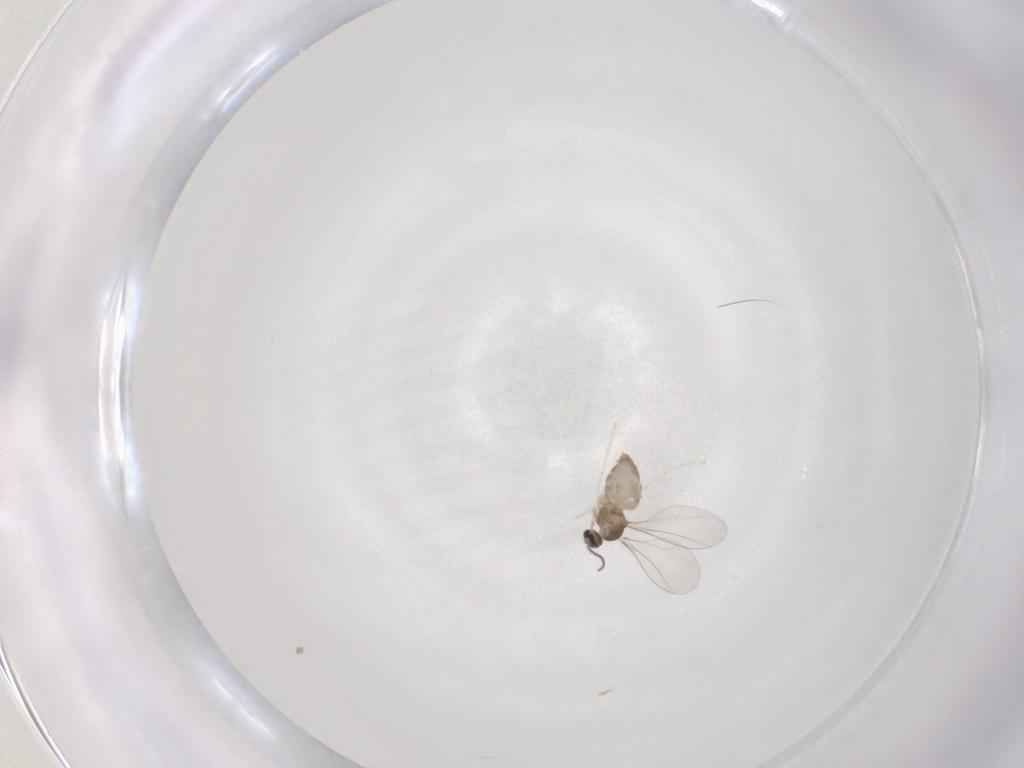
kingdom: Animalia
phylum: Arthropoda
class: Insecta
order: Diptera
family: Cecidomyiidae
